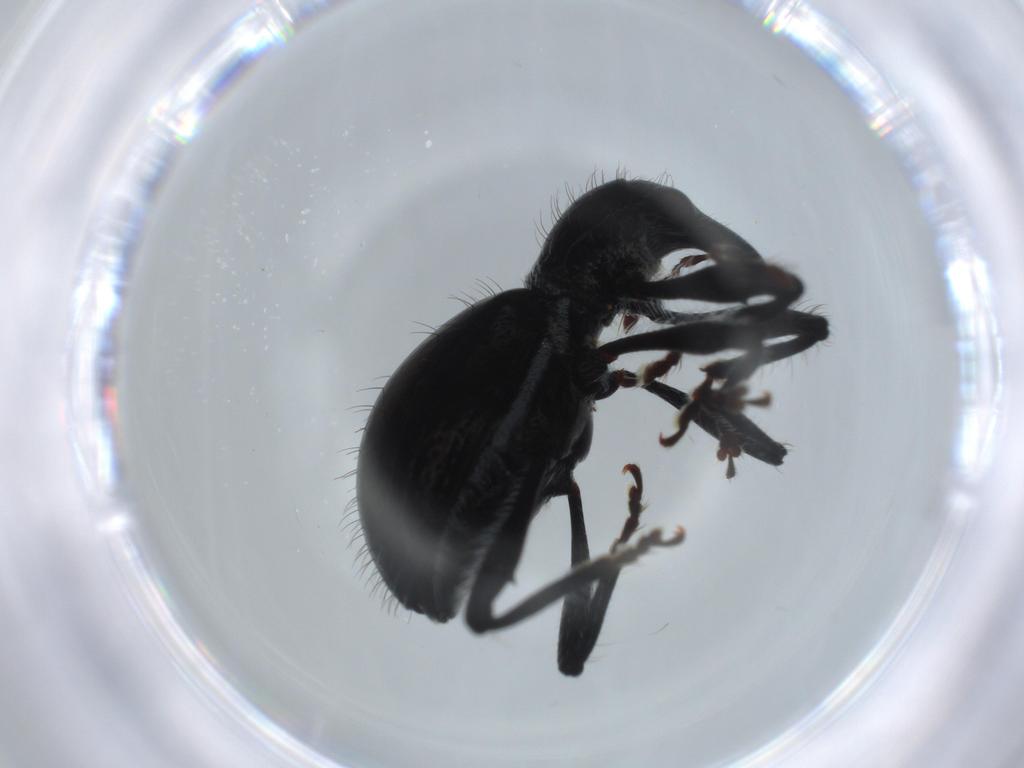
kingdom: Animalia
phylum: Arthropoda
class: Insecta
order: Coleoptera
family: Curculionidae
